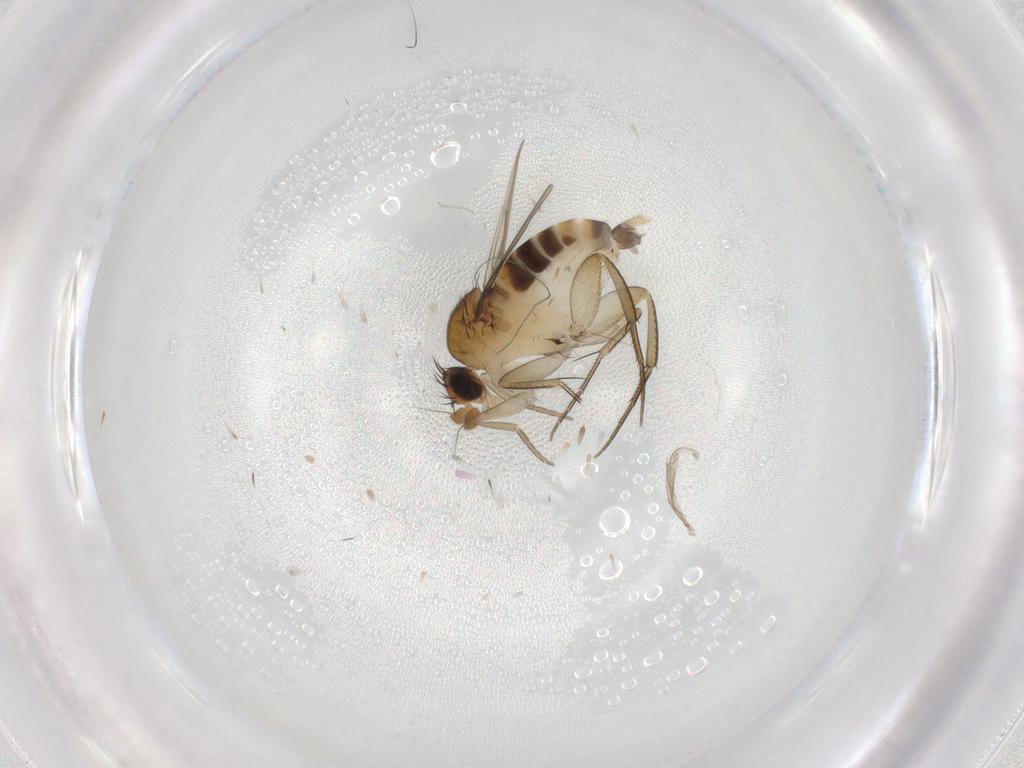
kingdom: Animalia
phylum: Arthropoda
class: Insecta
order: Diptera
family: Phoridae
